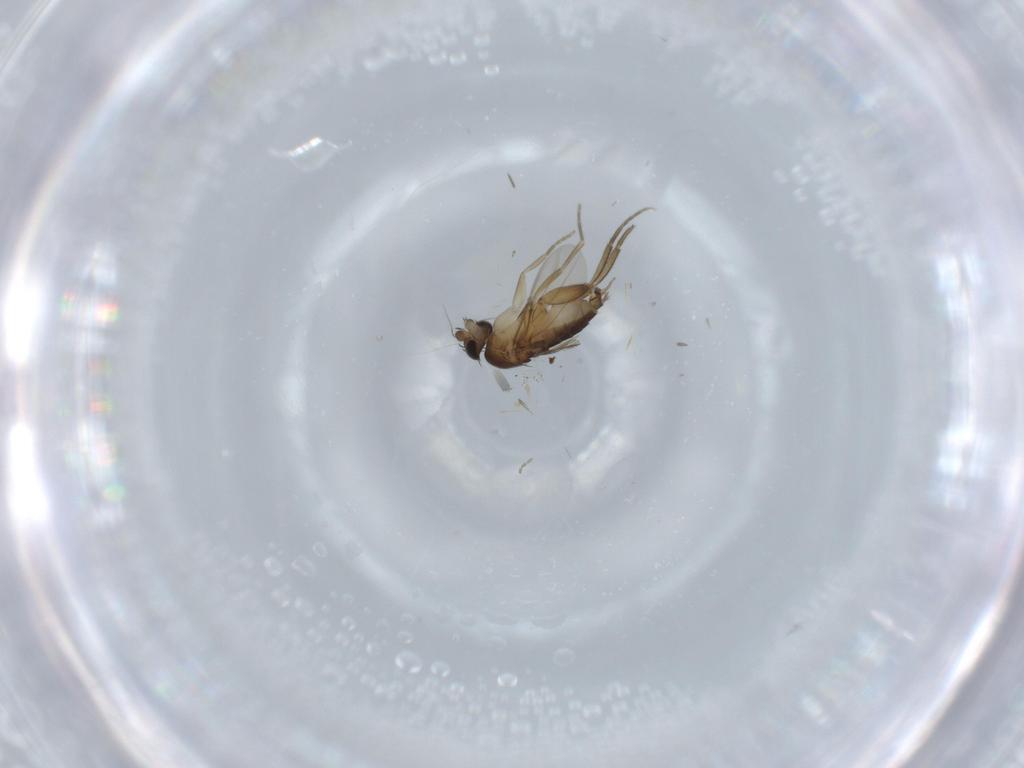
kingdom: Animalia
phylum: Arthropoda
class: Insecta
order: Diptera
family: Phoridae
